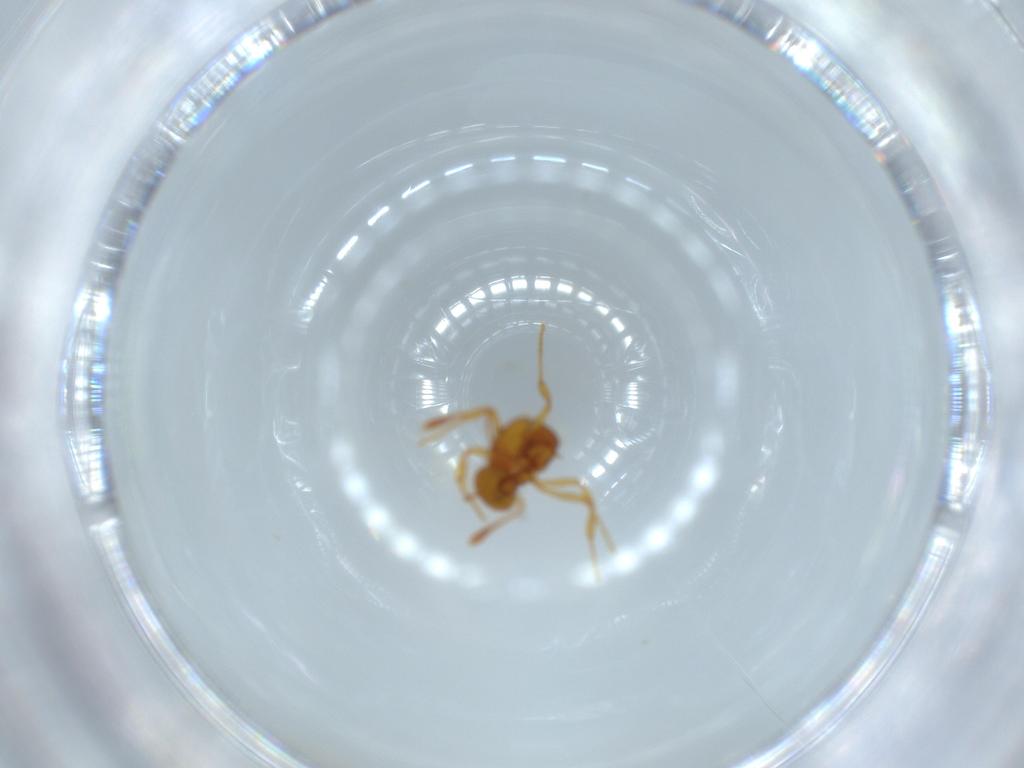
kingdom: Animalia
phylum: Arthropoda
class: Insecta
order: Hymenoptera
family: Formicidae
